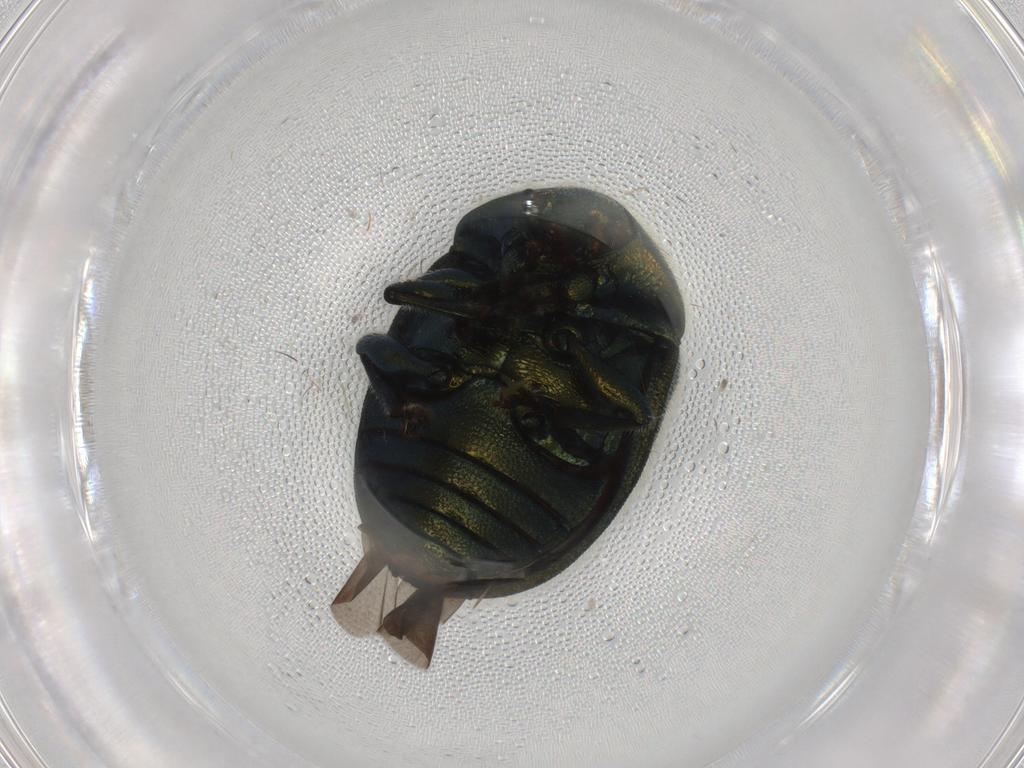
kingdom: Animalia
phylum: Arthropoda
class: Insecta
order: Coleoptera
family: Chrysomelidae
